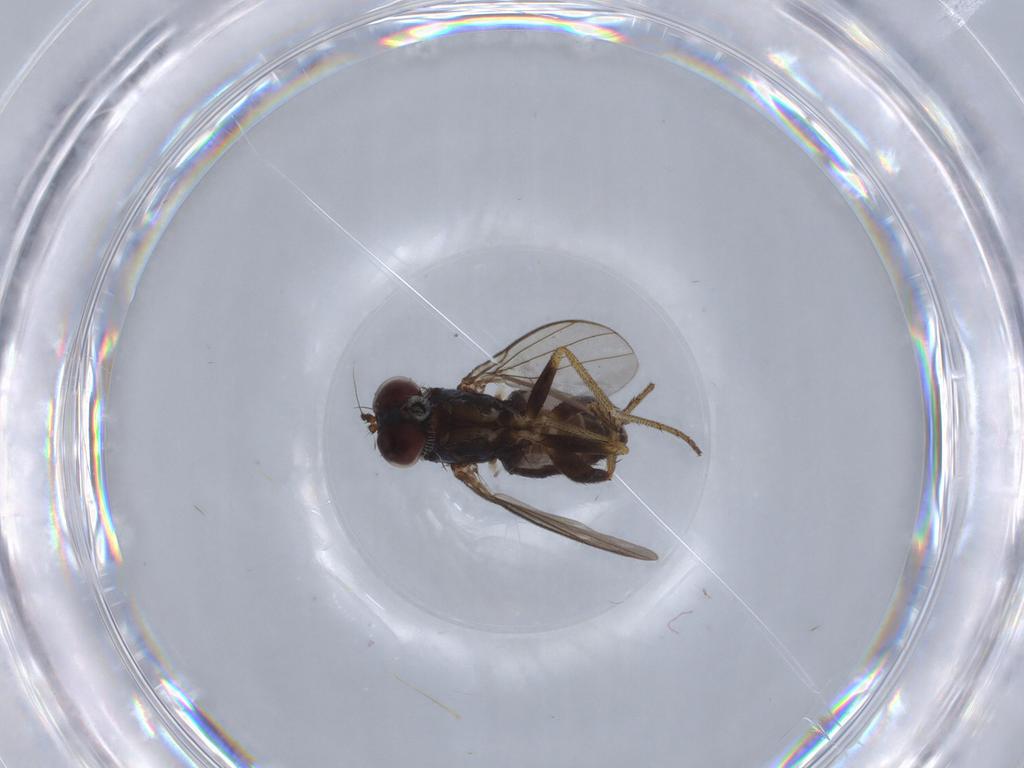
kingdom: Animalia
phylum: Arthropoda
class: Insecta
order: Diptera
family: Dolichopodidae
